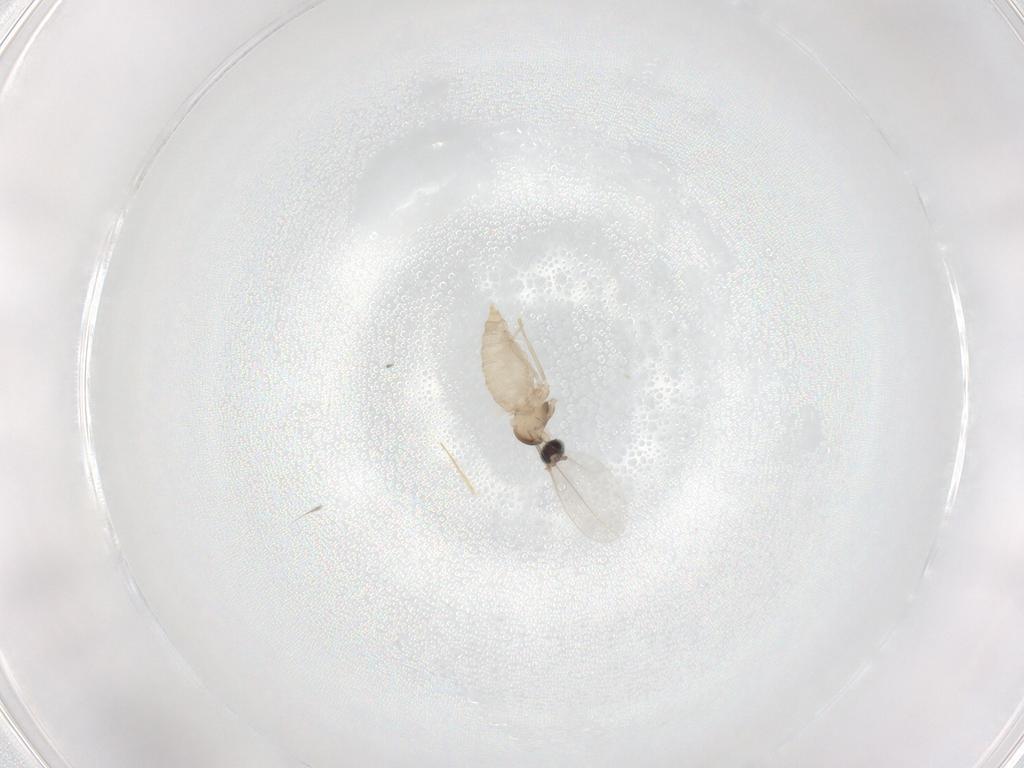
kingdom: Animalia
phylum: Arthropoda
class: Insecta
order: Diptera
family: Cecidomyiidae
